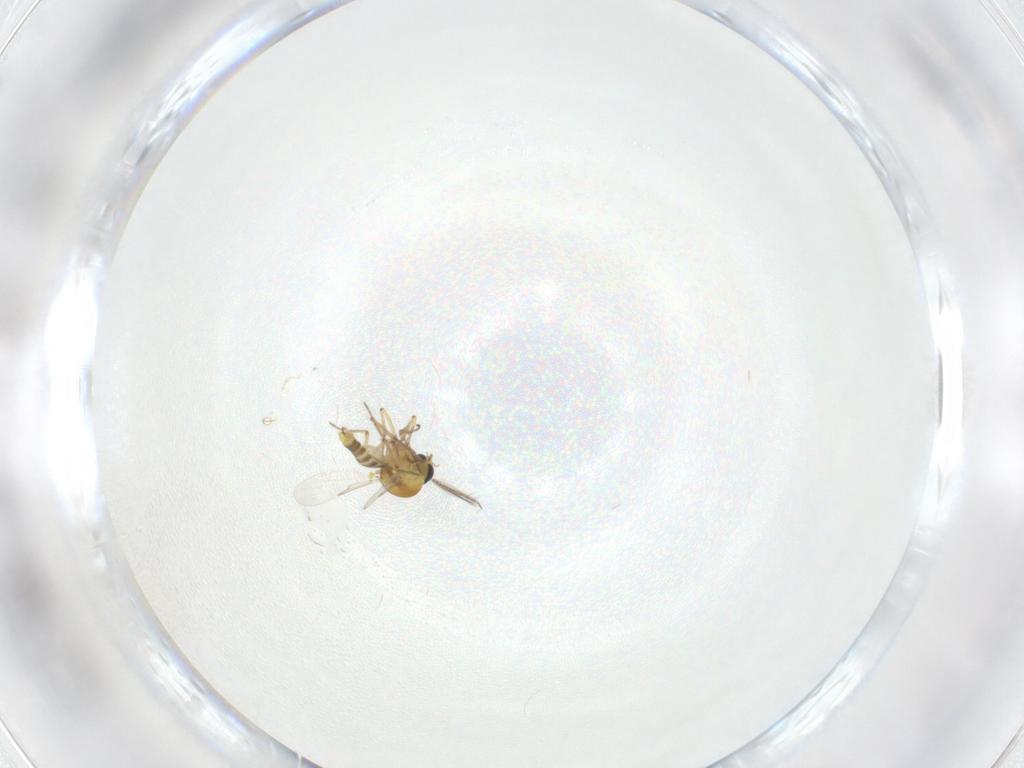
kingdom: Animalia
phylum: Arthropoda
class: Insecta
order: Diptera
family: Ceratopogonidae
